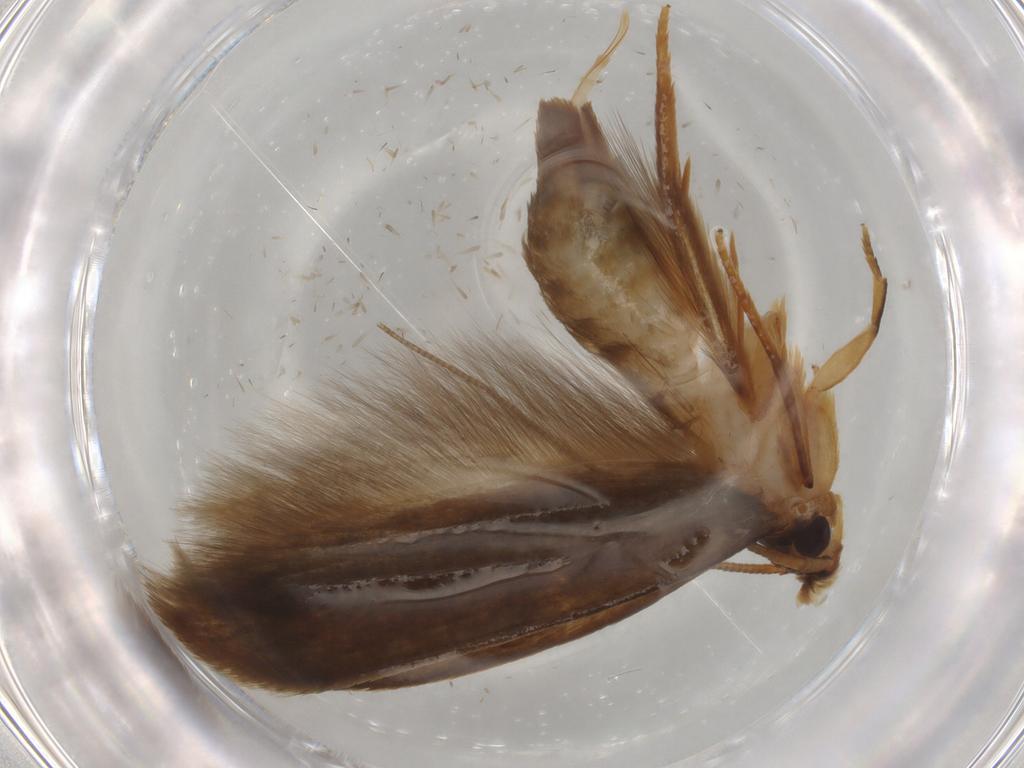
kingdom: Animalia
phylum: Arthropoda
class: Insecta
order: Lepidoptera
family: Tineidae
